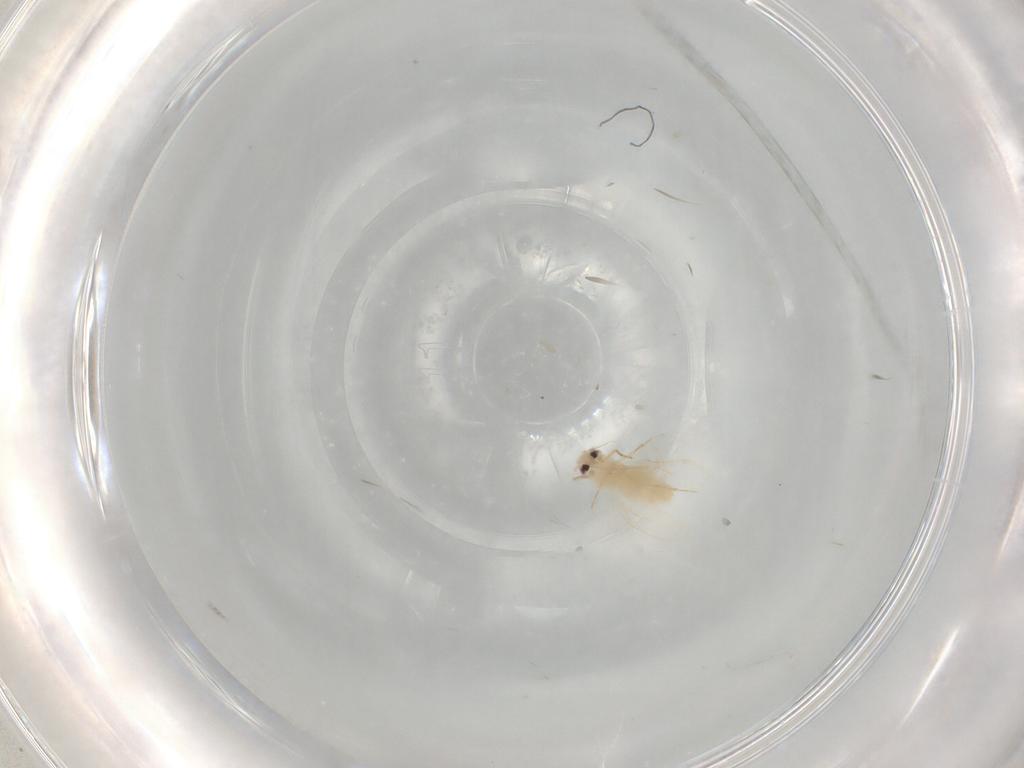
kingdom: Animalia
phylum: Arthropoda
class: Insecta
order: Hemiptera
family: Aleyrodidae
